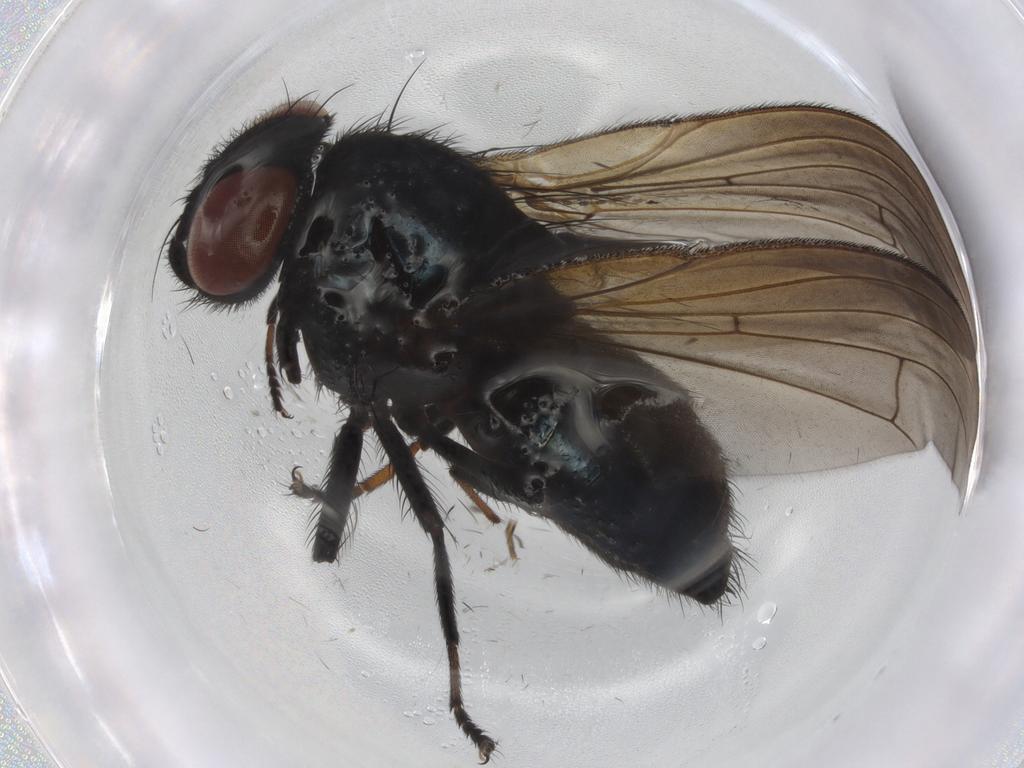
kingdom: Animalia
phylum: Arthropoda
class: Insecta
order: Diptera
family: Lonchaeidae
